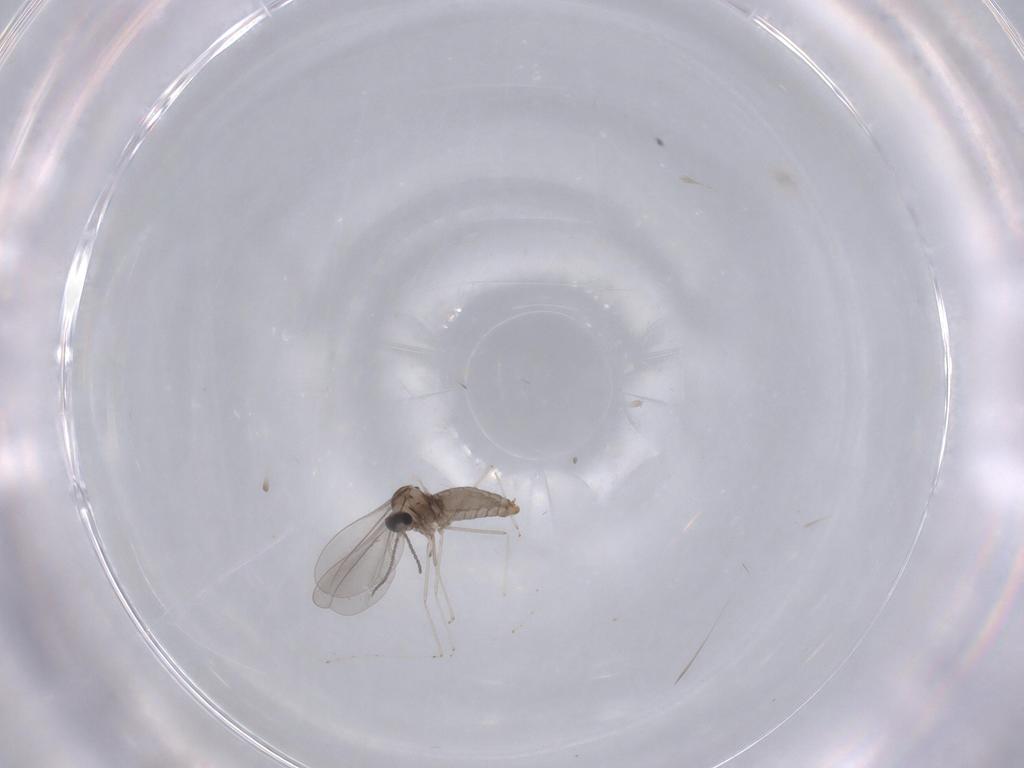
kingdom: Animalia
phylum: Arthropoda
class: Insecta
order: Diptera
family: Cecidomyiidae
